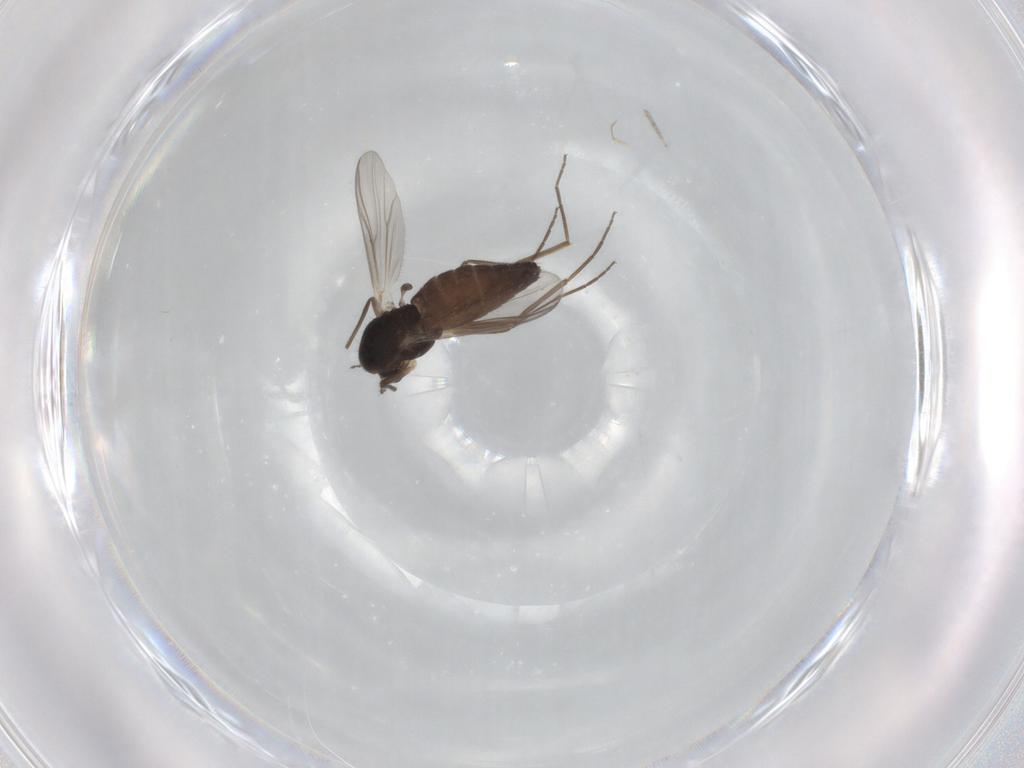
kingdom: Animalia
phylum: Arthropoda
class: Insecta
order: Diptera
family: Chironomidae
